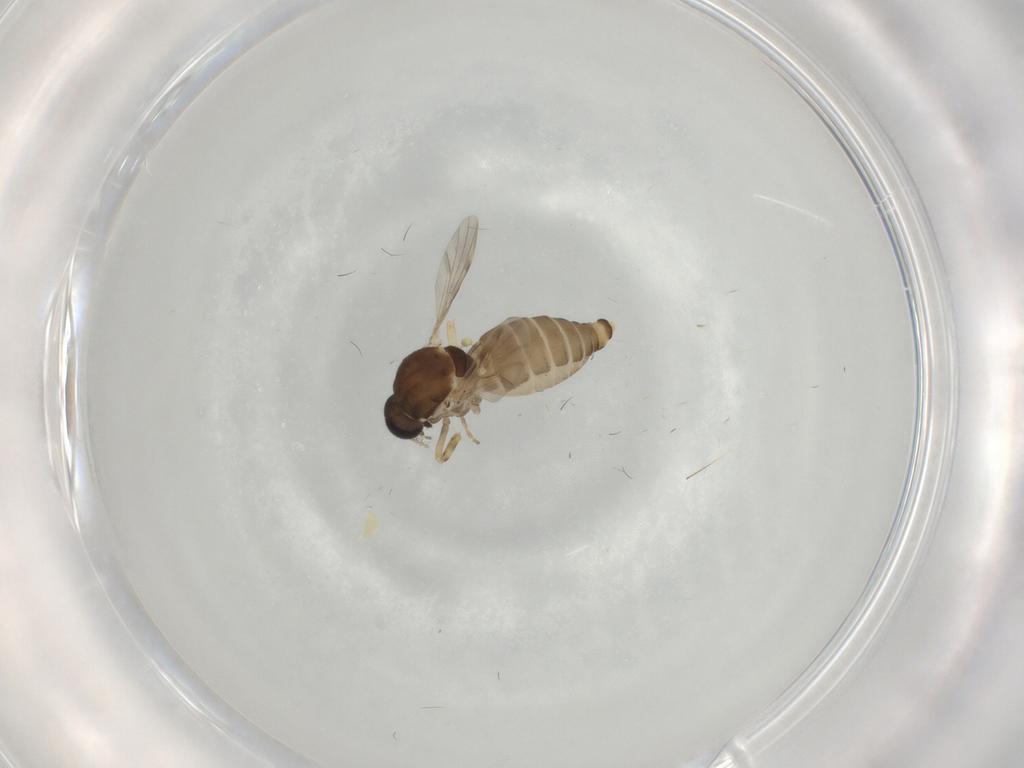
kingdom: Animalia
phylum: Arthropoda
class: Insecta
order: Diptera
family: Ceratopogonidae
